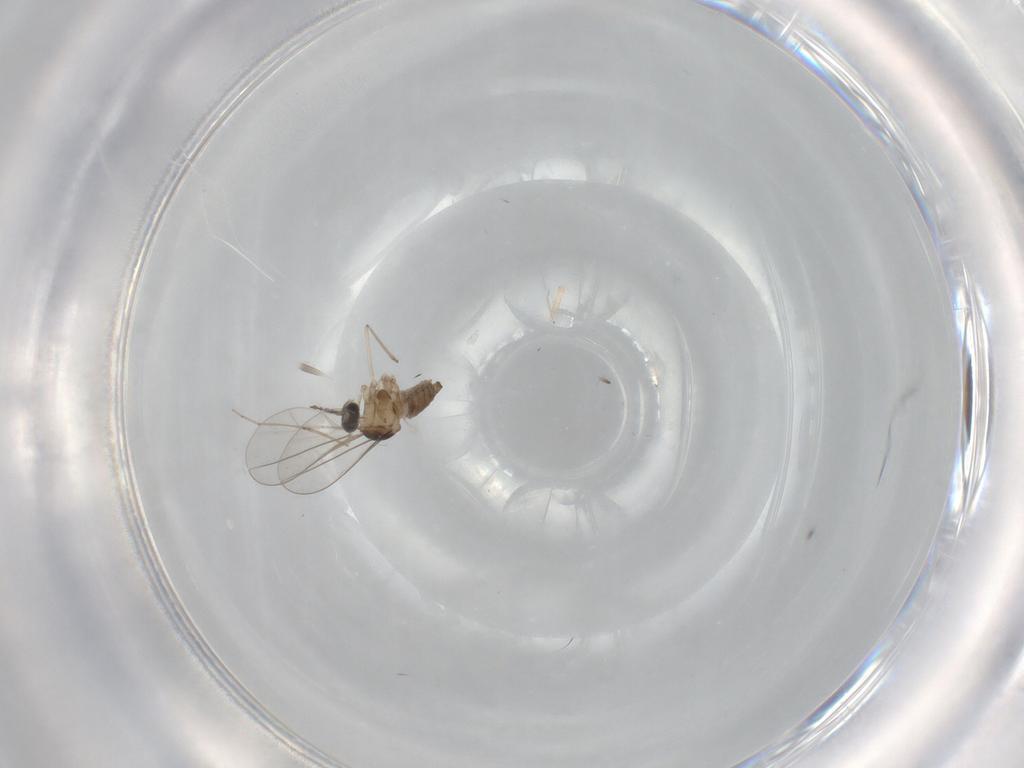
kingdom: Animalia
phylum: Arthropoda
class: Insecta
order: Diptera
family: Cecidomyiidae
